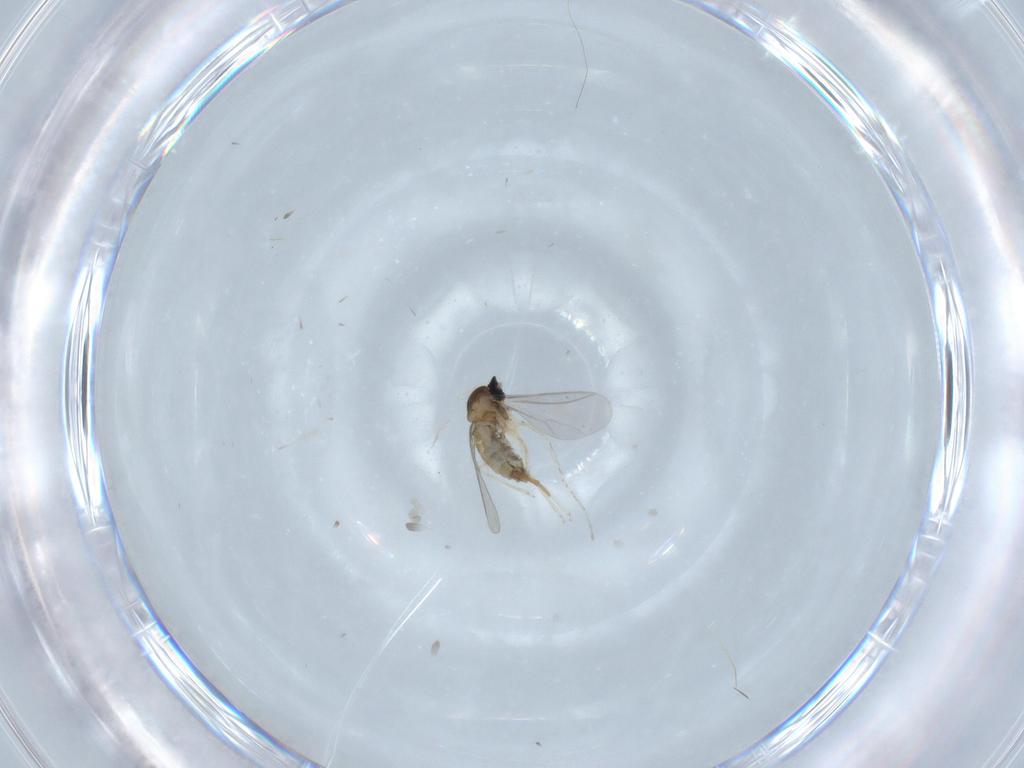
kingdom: Animalia
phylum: Arthropoda
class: Insecta
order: Diptera
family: Cecidomyiidae
